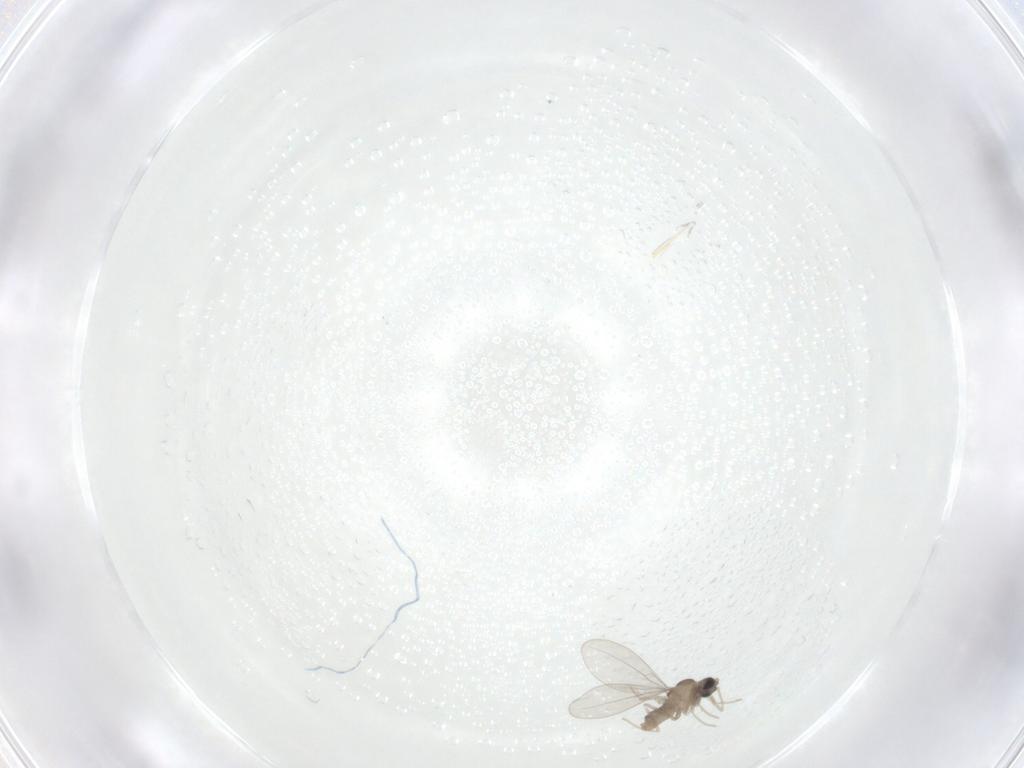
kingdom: Animalia
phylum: Arthropoda
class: Insecta
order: Diptera
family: Cecidomyiidae
